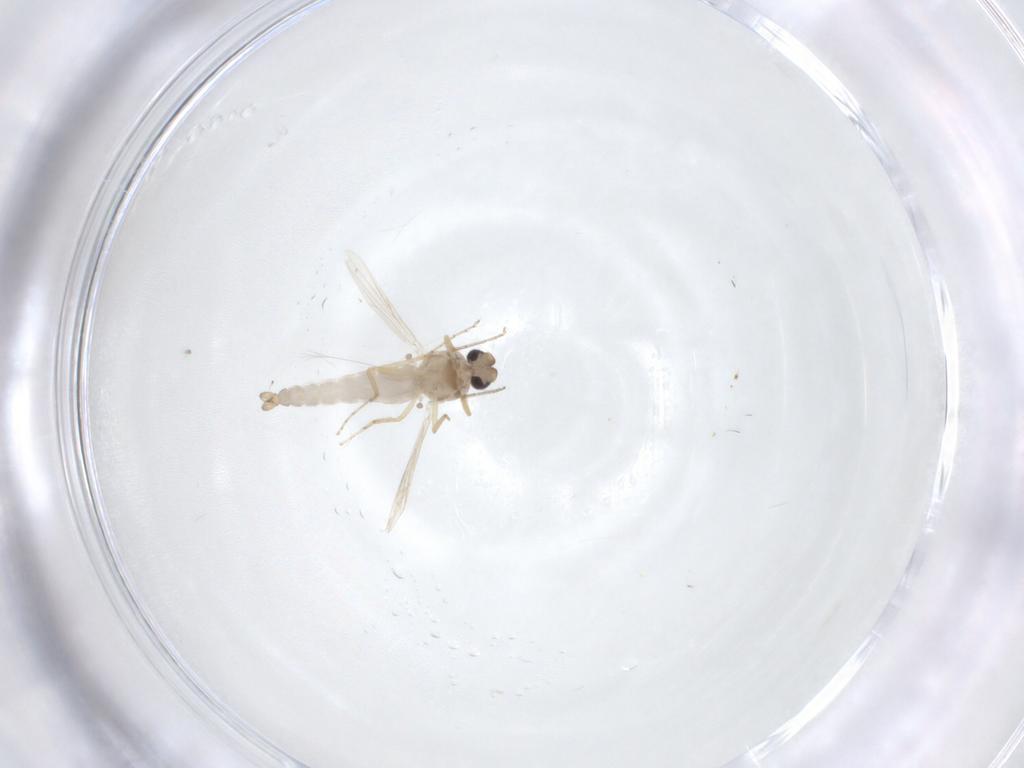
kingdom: Animalia
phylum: Arthropoda
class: Insecta
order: Diptera
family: Ceratopogonidae
